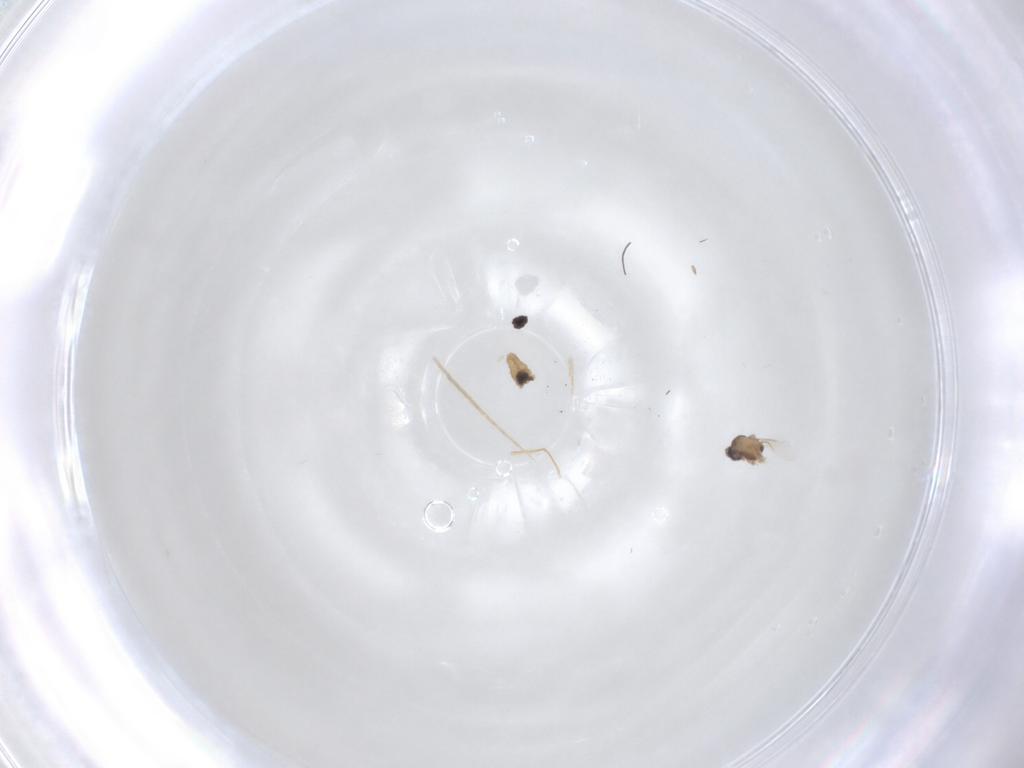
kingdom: Animalia
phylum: Arthropoda
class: Insecta
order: Diptera
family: Cecidomyiidae
